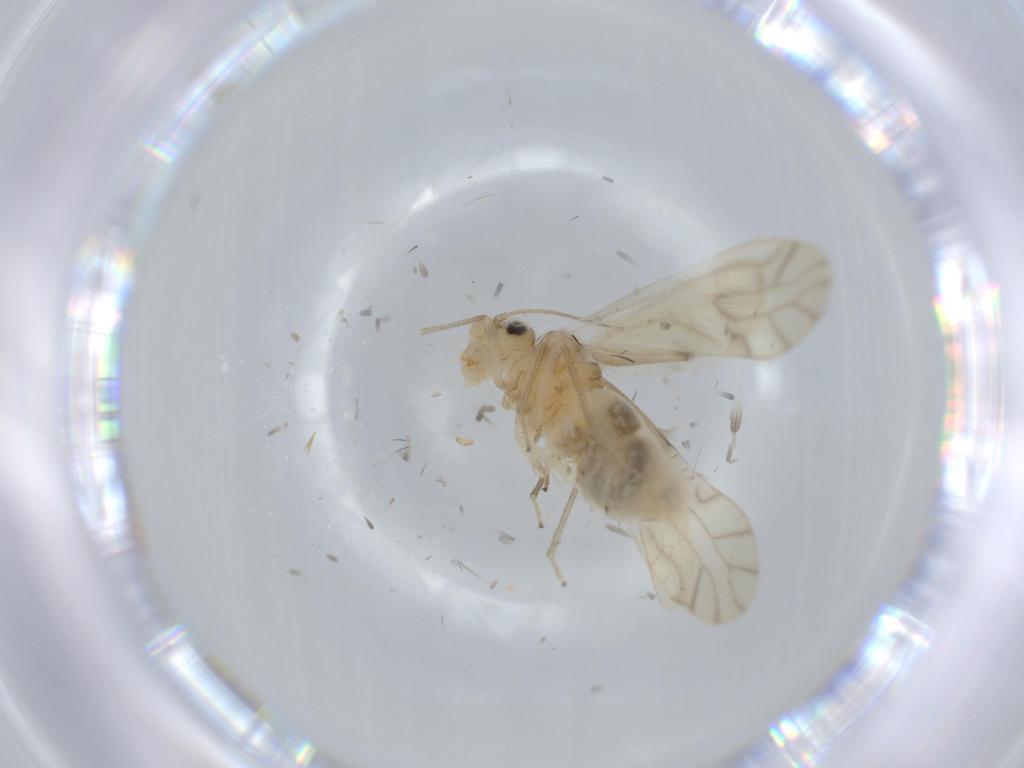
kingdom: Animalia
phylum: Arthropoda
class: Insecta
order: Psocodea
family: Caeciliusidae
